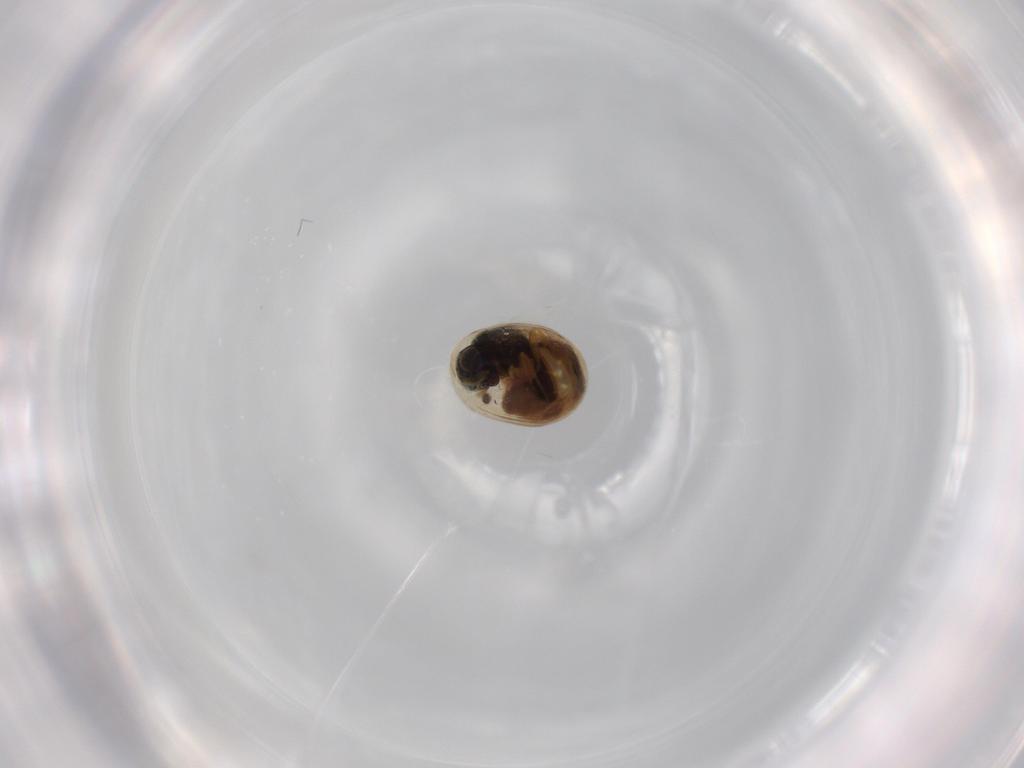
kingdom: Animalia
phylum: Arthropoda
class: Insecta
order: Hymenoptera
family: Scelionidae
